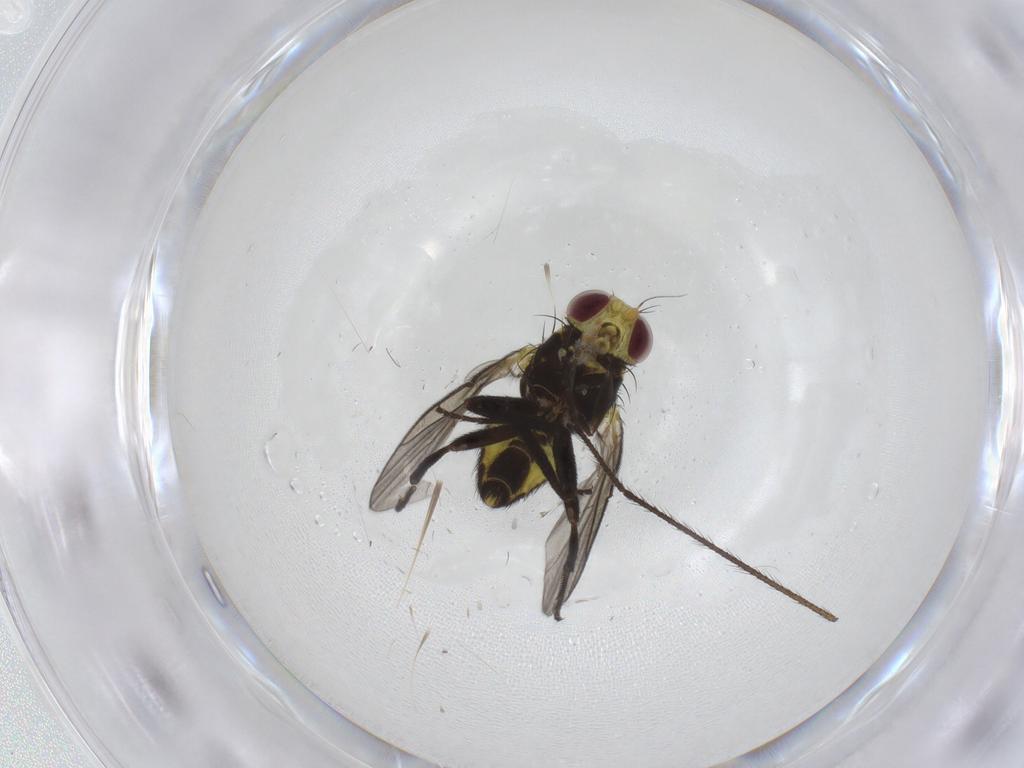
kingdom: Animalia
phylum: Arthropoda
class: Insecta
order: Diptera
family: Agromyzidae
